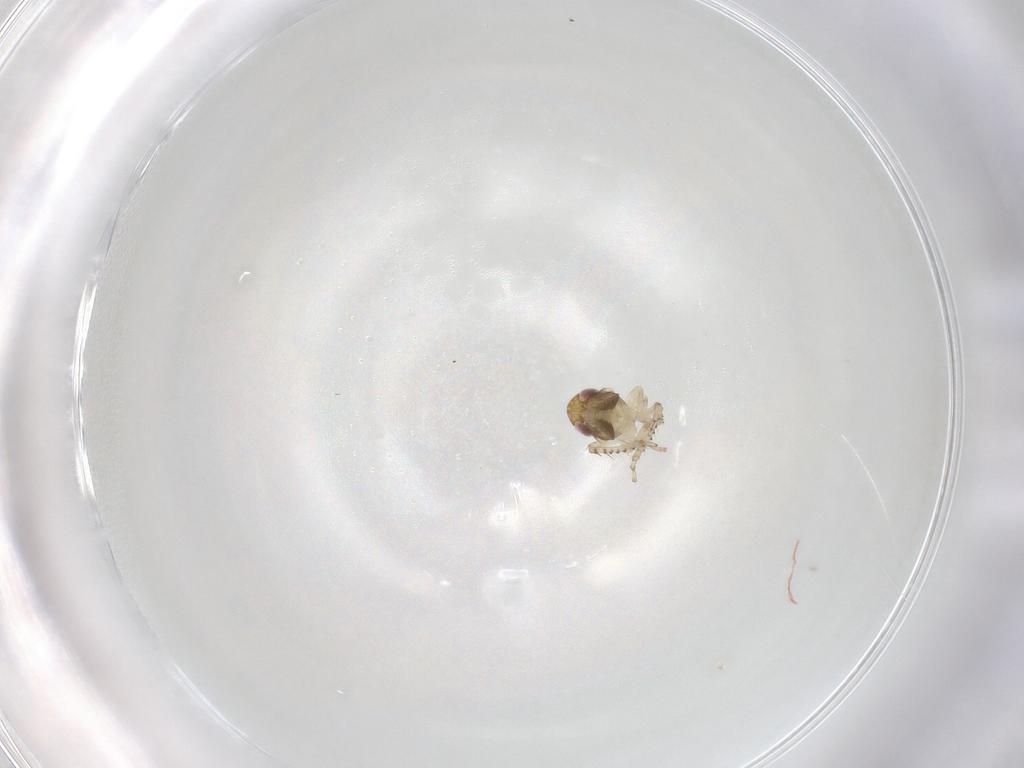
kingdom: Animalia
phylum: Arthropoda
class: Insecta
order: Hemiptera
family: Cicadellidae
